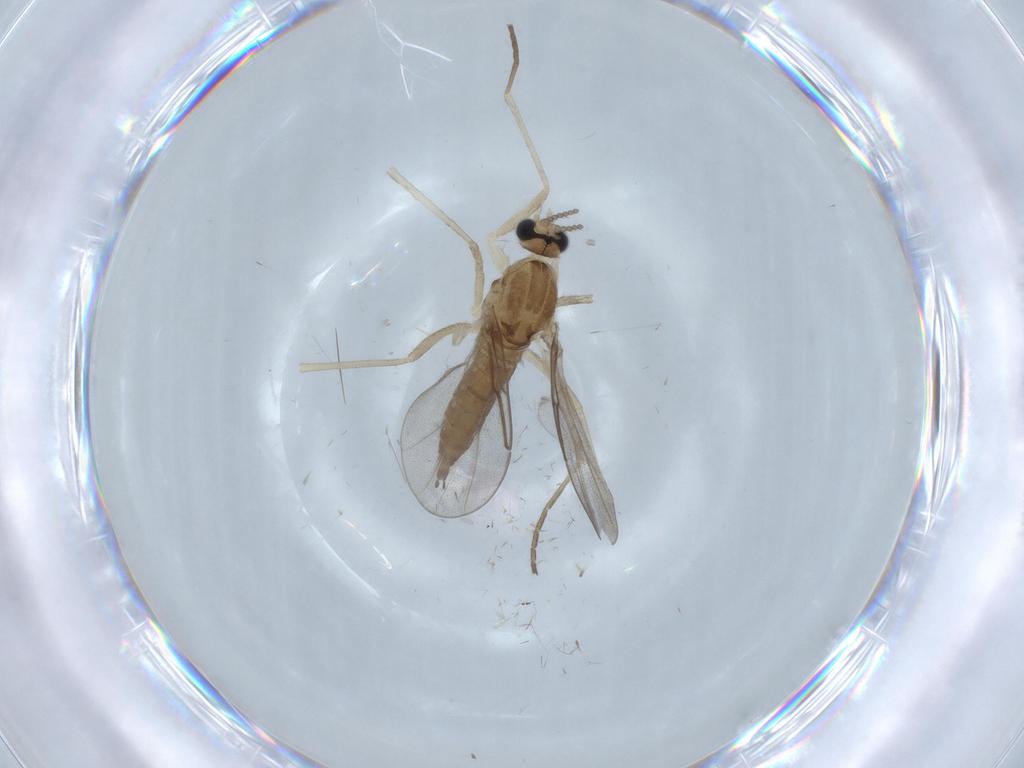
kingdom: Animalia
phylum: Arthropoda
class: Insecta
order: Diptera
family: Cecidomyiidae
